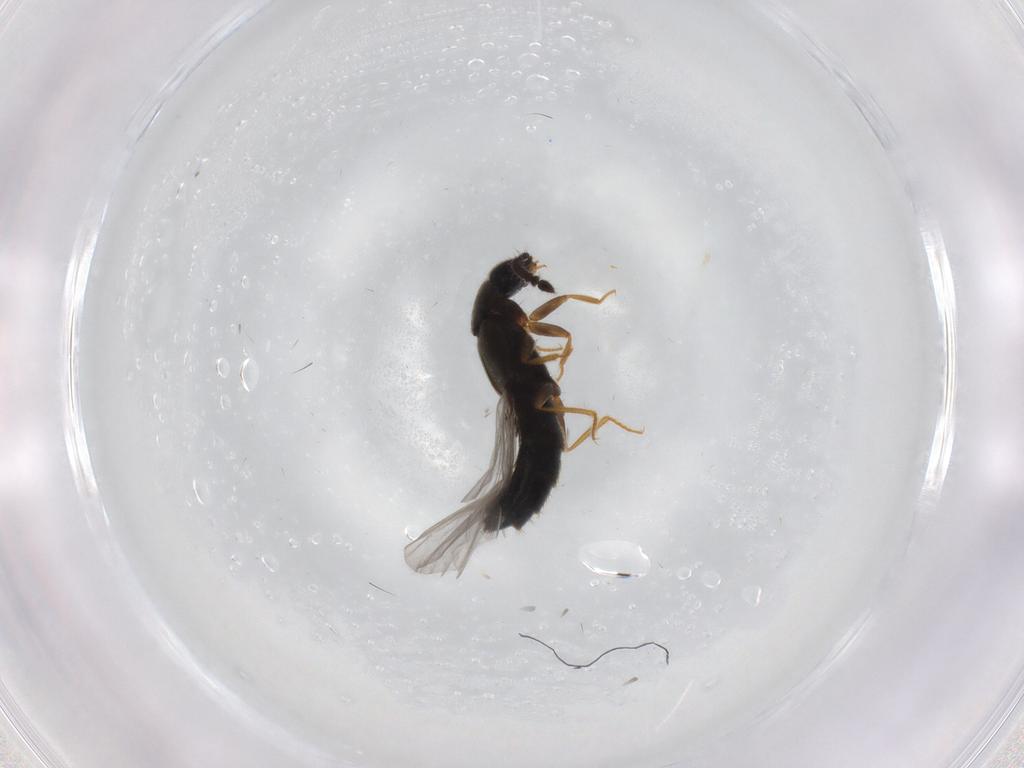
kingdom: Animalia
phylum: Arthropoda
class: Insecta
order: Coleoptera
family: Staphylinidae
